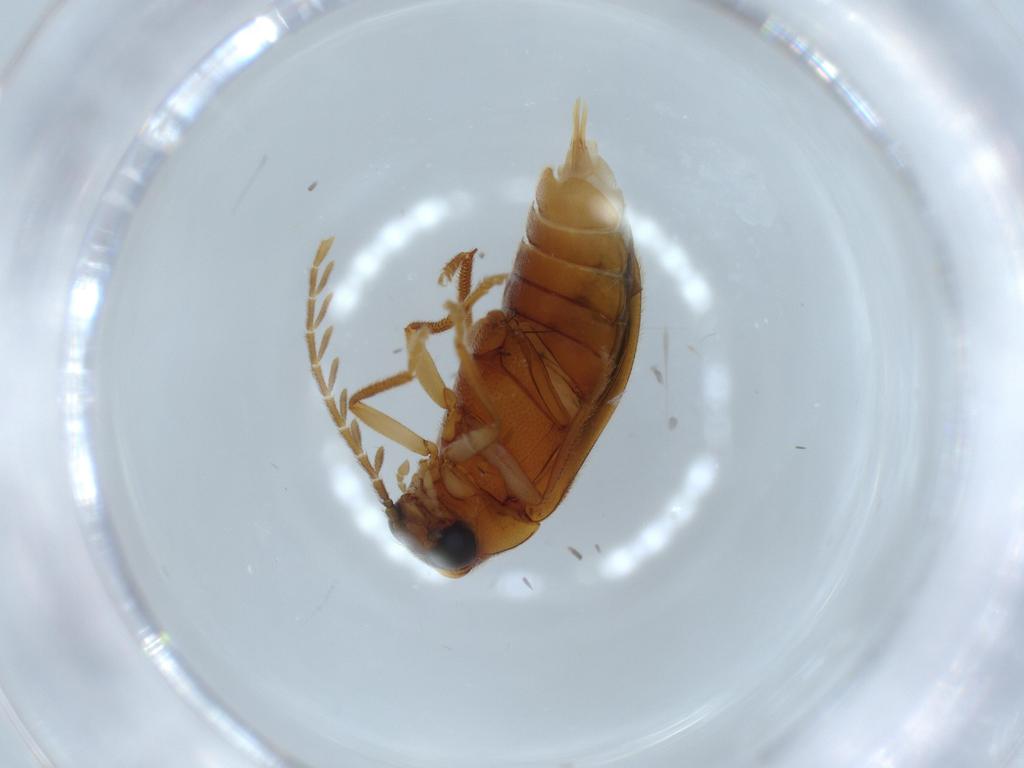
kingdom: Animalia
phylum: Arthropoda
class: Insecta
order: Coleoptera
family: Ptilodactylidae
